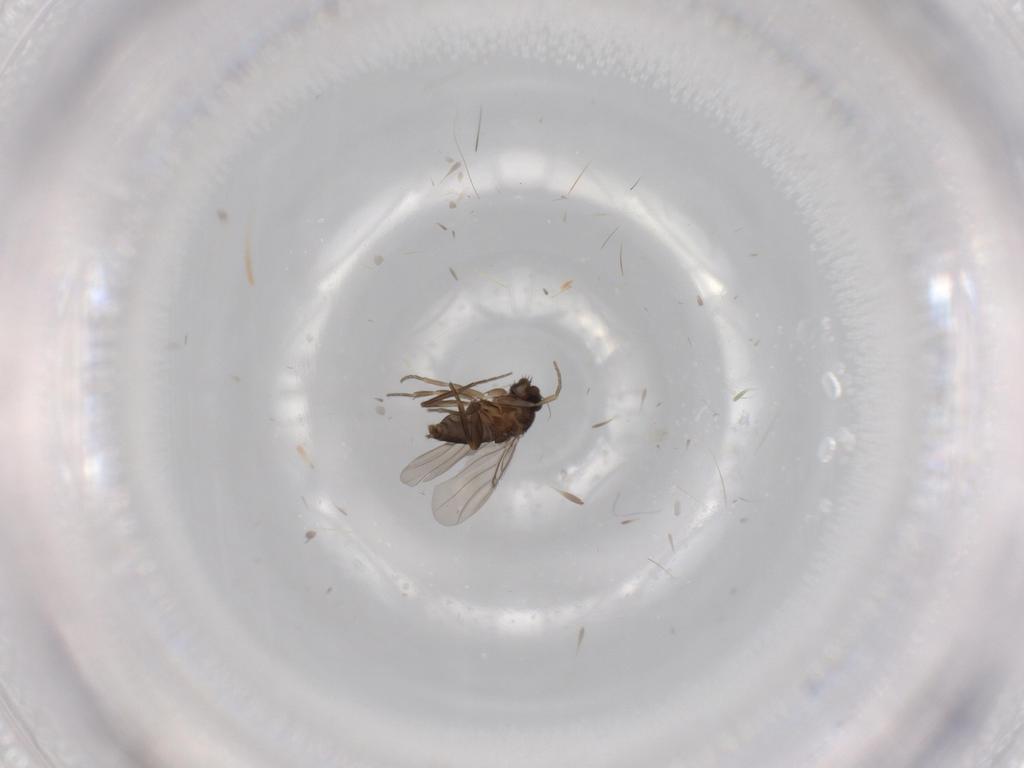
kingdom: Animalia
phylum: Arthropoda
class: Insecta
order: Diptera
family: Phoridae
